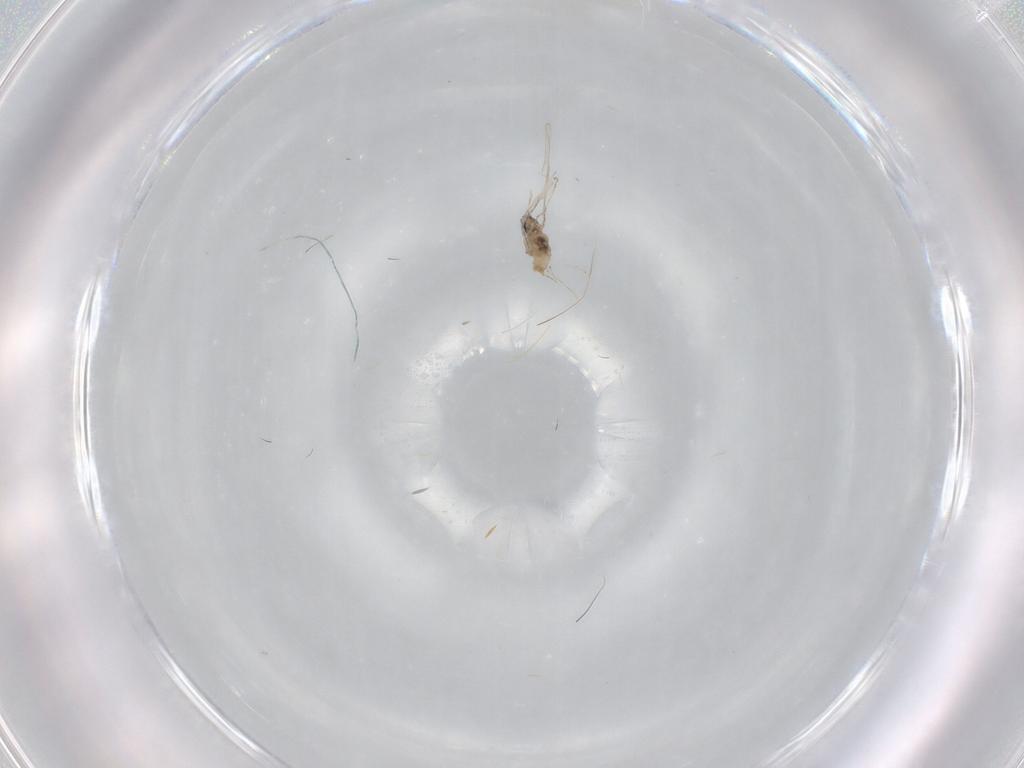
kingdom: Animalia
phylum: Arthropoda
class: Insecta
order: Diptera
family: Cecidomyiidae
